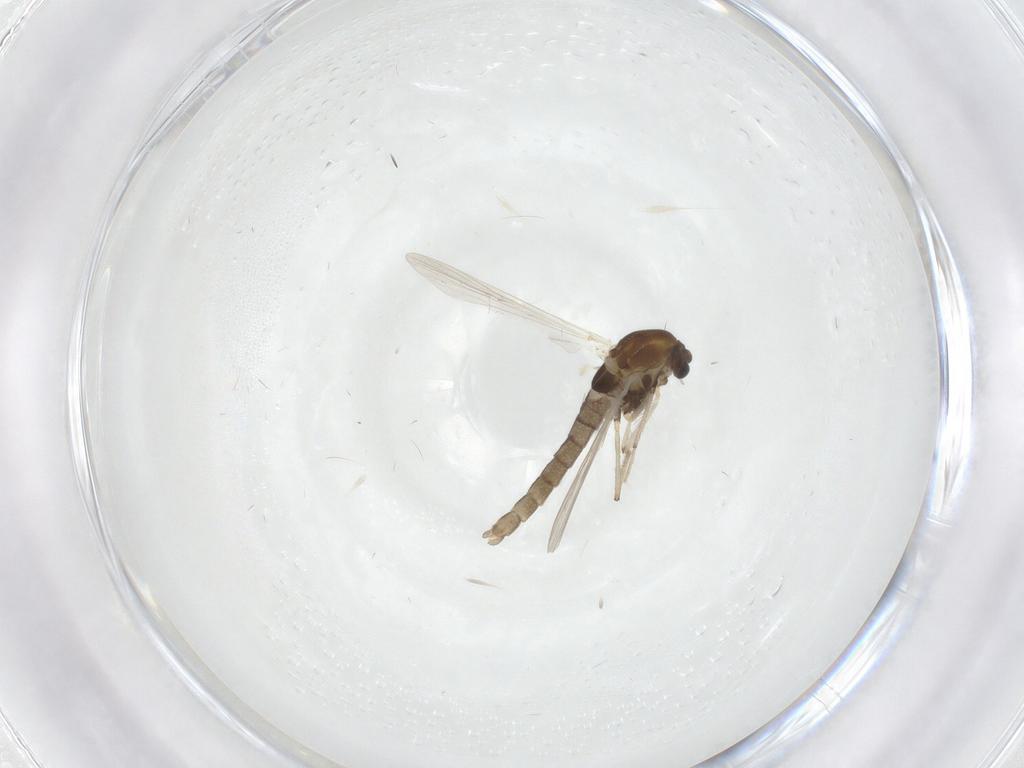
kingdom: Animalia
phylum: Arthropoda
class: Insecta
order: Diptera
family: Chironomidae
